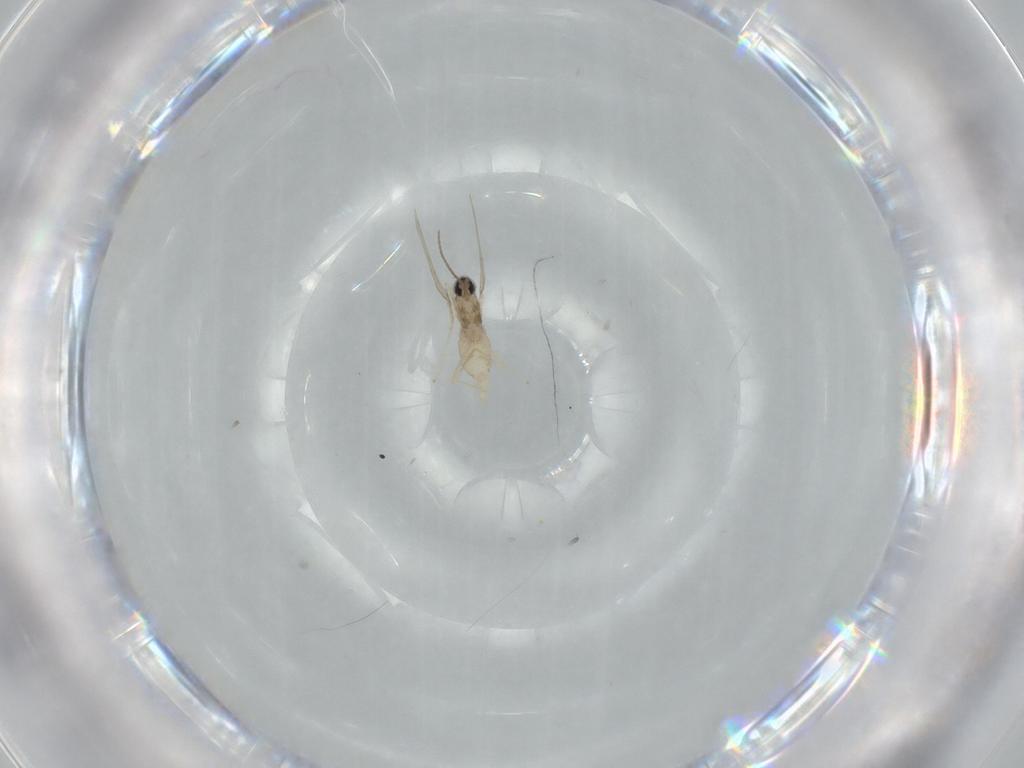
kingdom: Animalia
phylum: Arthropoda
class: Insecta
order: Diptera
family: Cecidomyiidae
